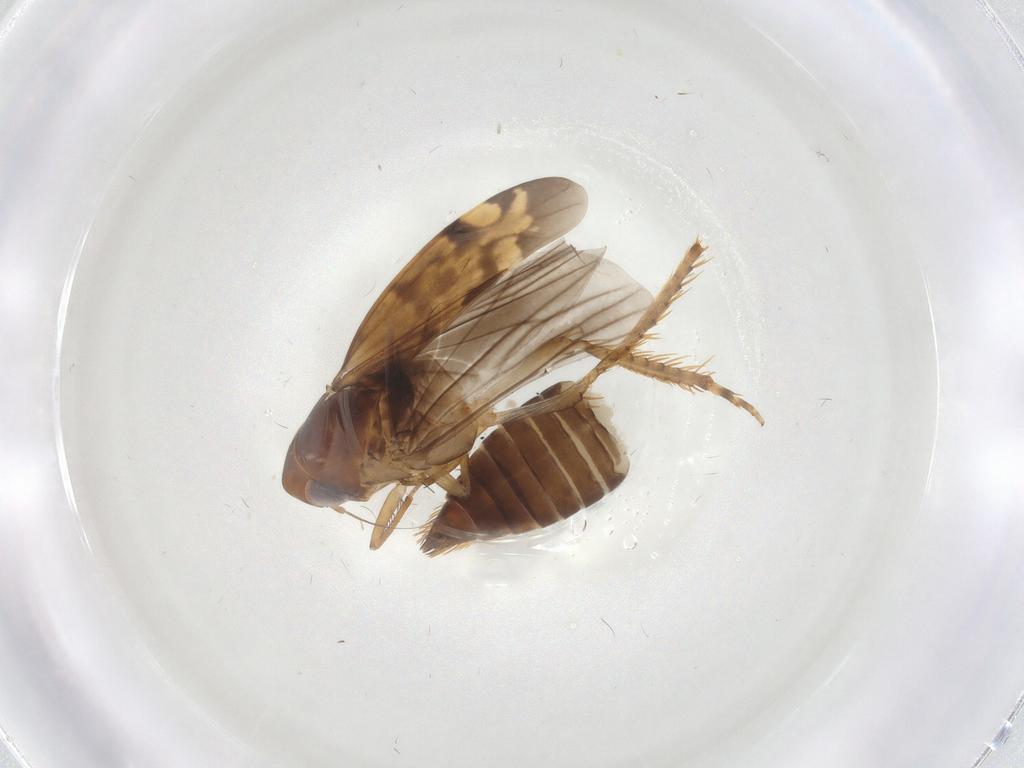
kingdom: Animalia
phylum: Arthropoda
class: Insecta
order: Hemiptera
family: Cicadellidae
